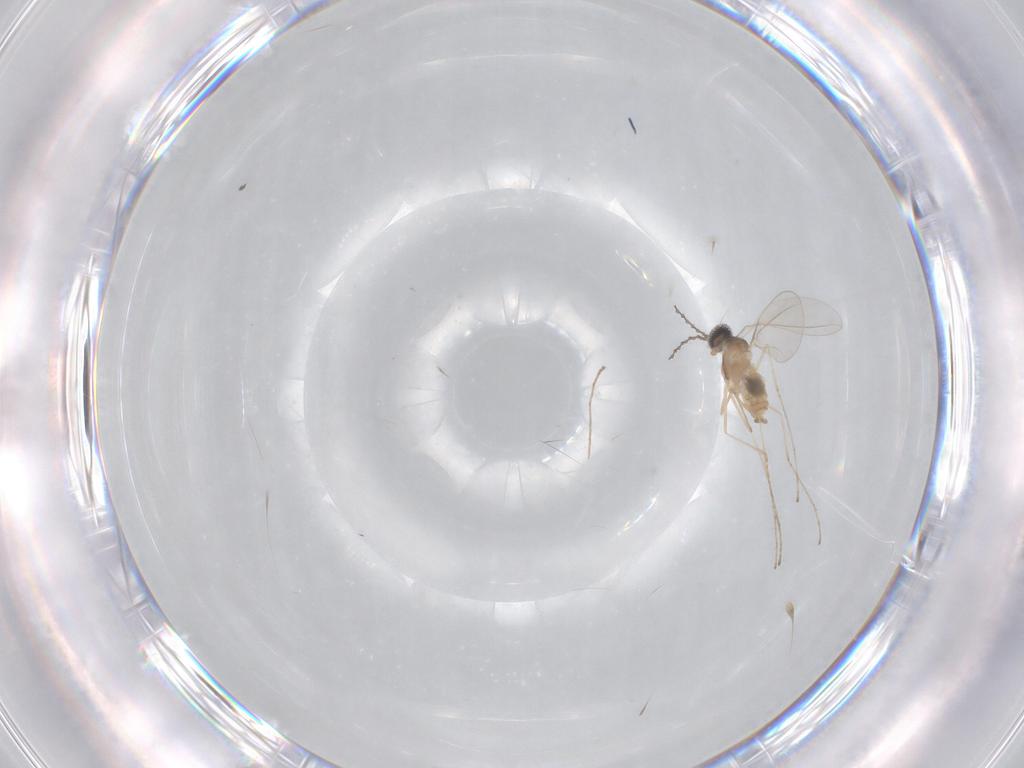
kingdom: Animalia
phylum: Arthropoda
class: Insecta
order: Diptera
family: Cecidomyiidae
